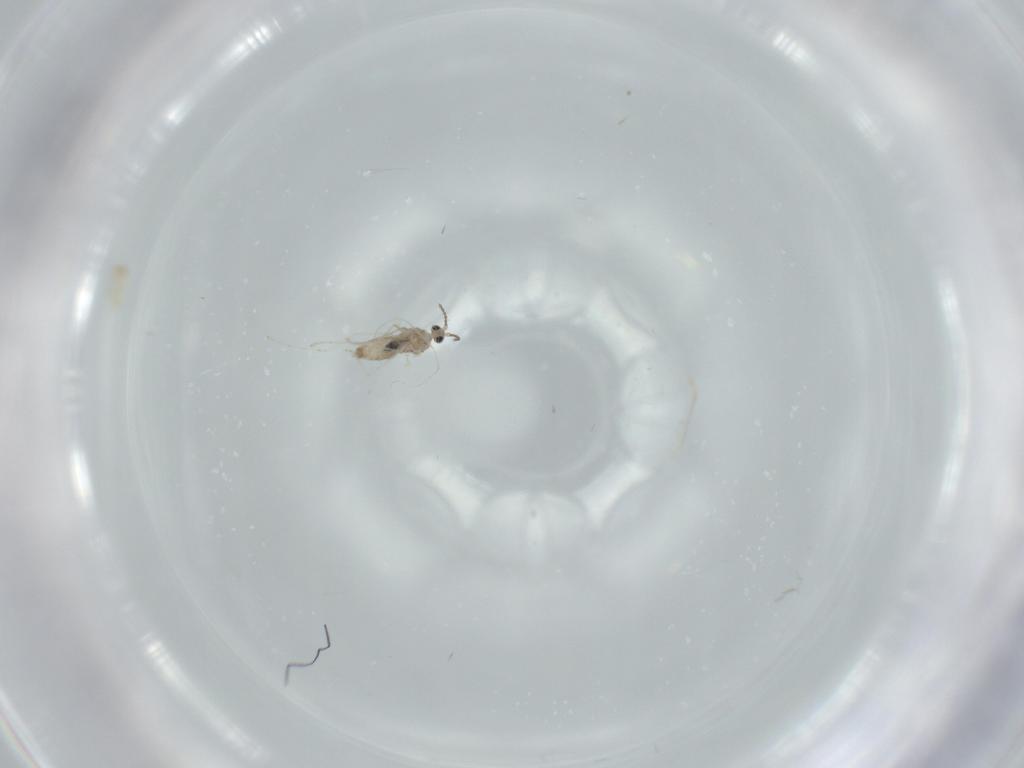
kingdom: Animalia
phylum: Arthropoda
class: Insecta
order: Diptera
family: Cecidomyiidae
